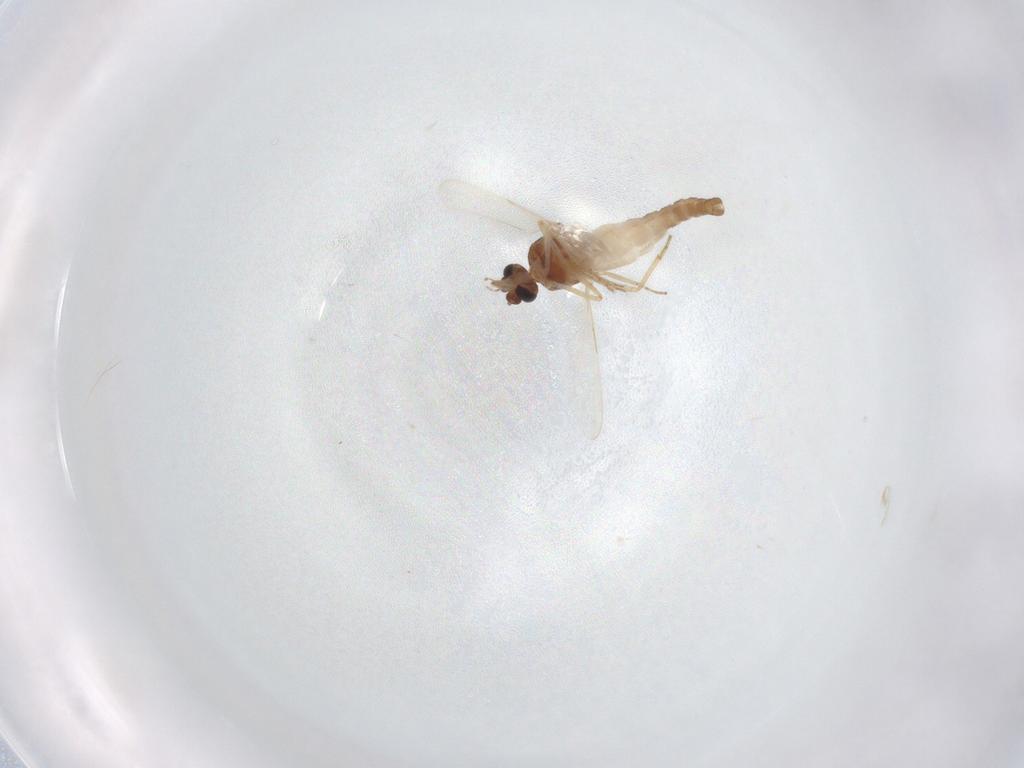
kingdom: Animalia
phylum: Arthropoda
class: Insecta
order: Diptera
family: Ceratopogonidae
